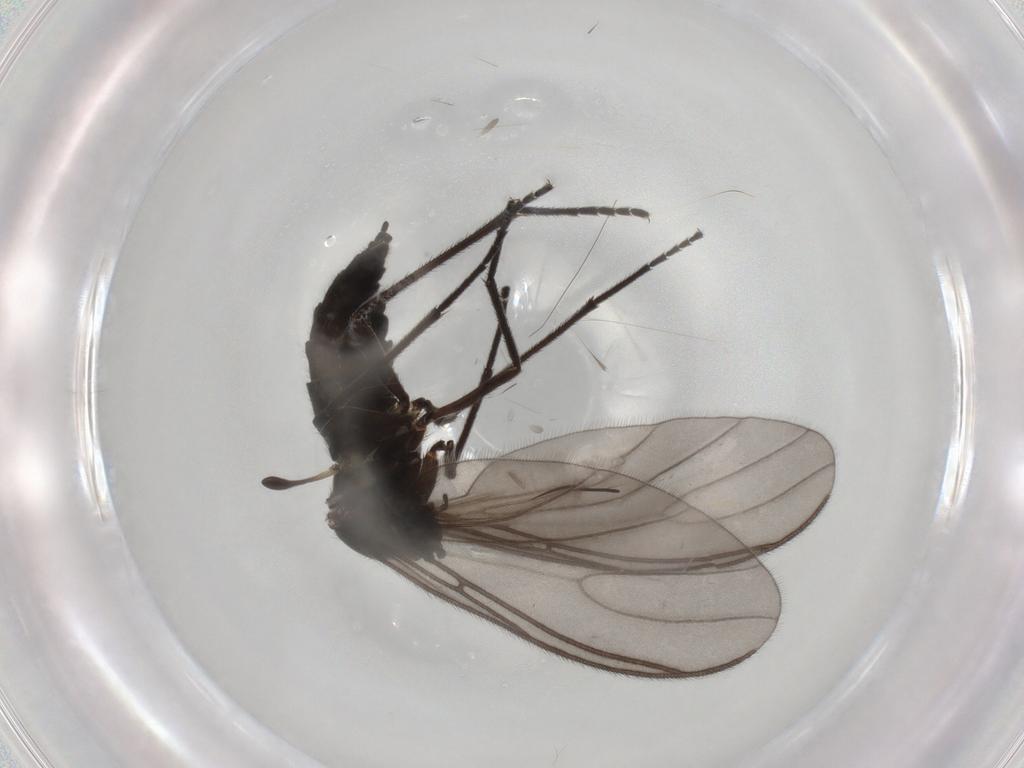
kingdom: Animalia
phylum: Arthropoda
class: Insecta
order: Diptera
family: Sciaridae
